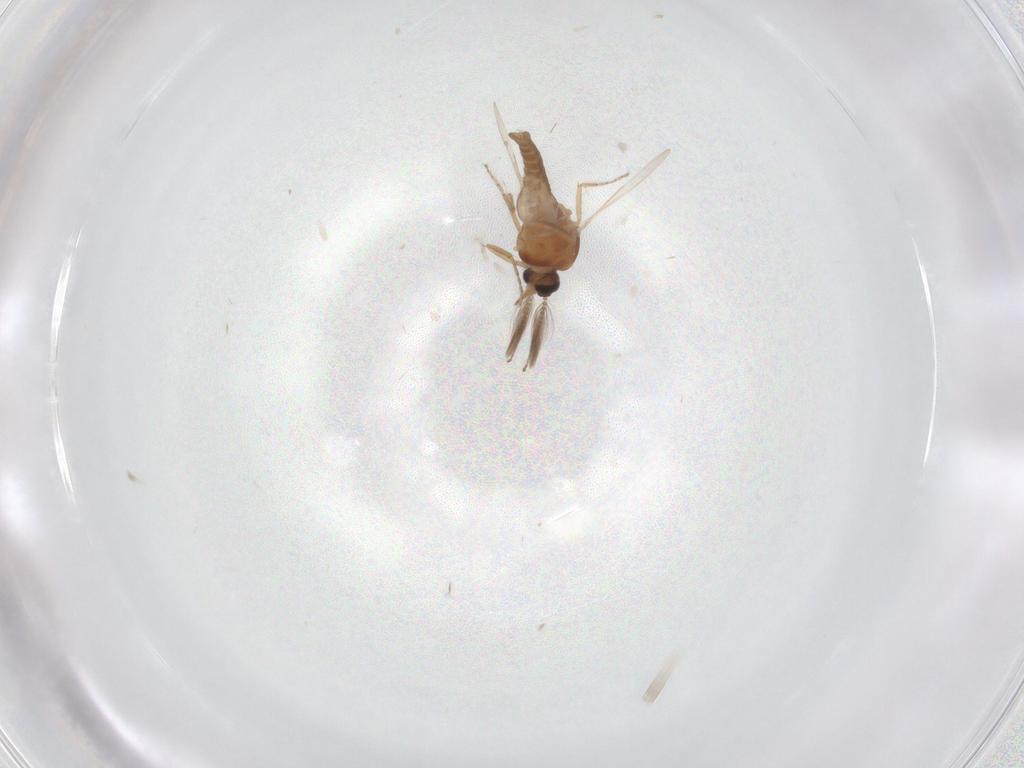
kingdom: Animalia
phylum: Arthropoda
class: Insecta
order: Diptera
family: Ceratopogonidae
